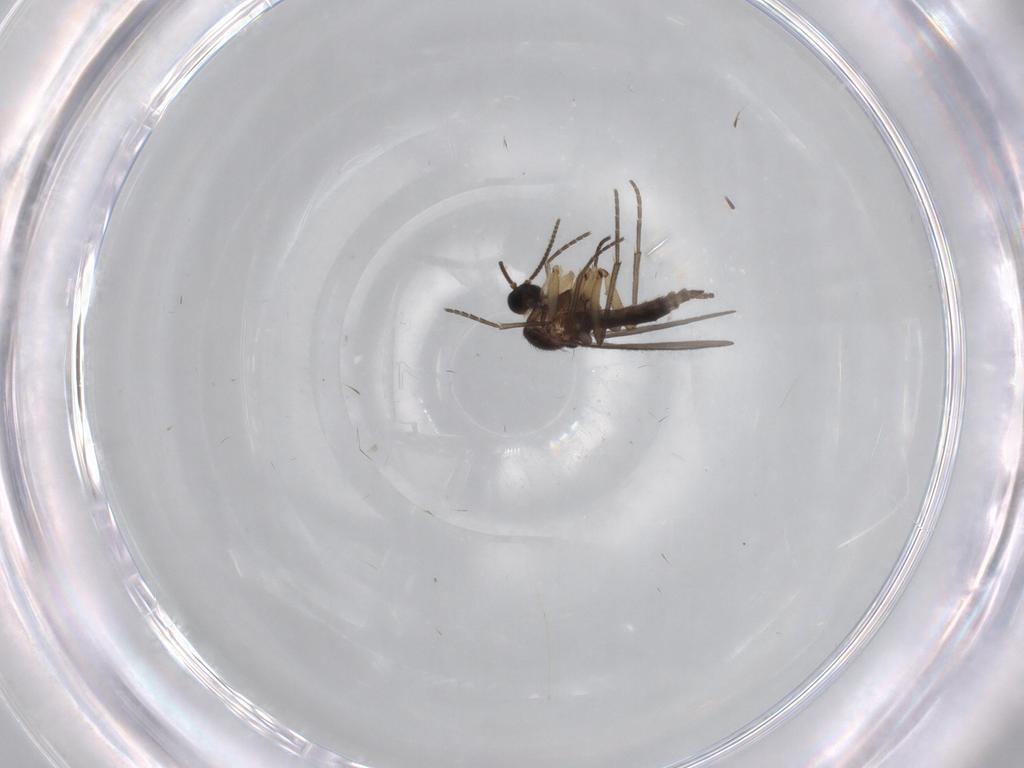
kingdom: Animalia
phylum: Arthropoda
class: Insecta
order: Diptera
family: Sciaridae
